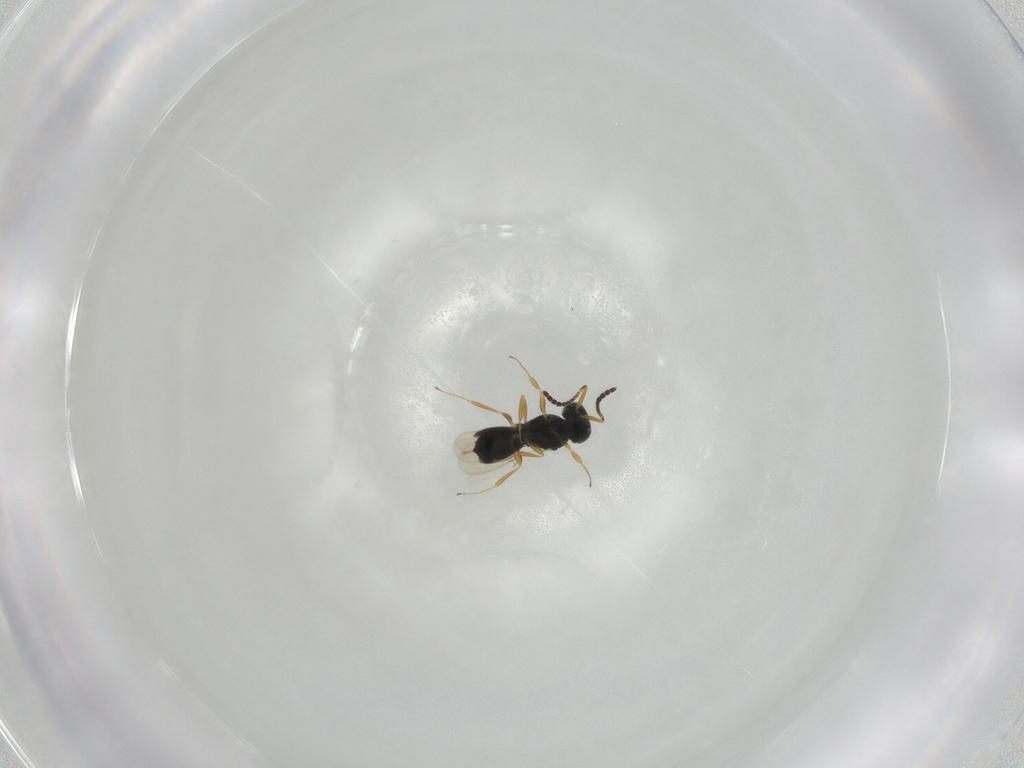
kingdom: Animalia
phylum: Arthropoda
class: Insecta
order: Hymenoptera
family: Scelionidae
